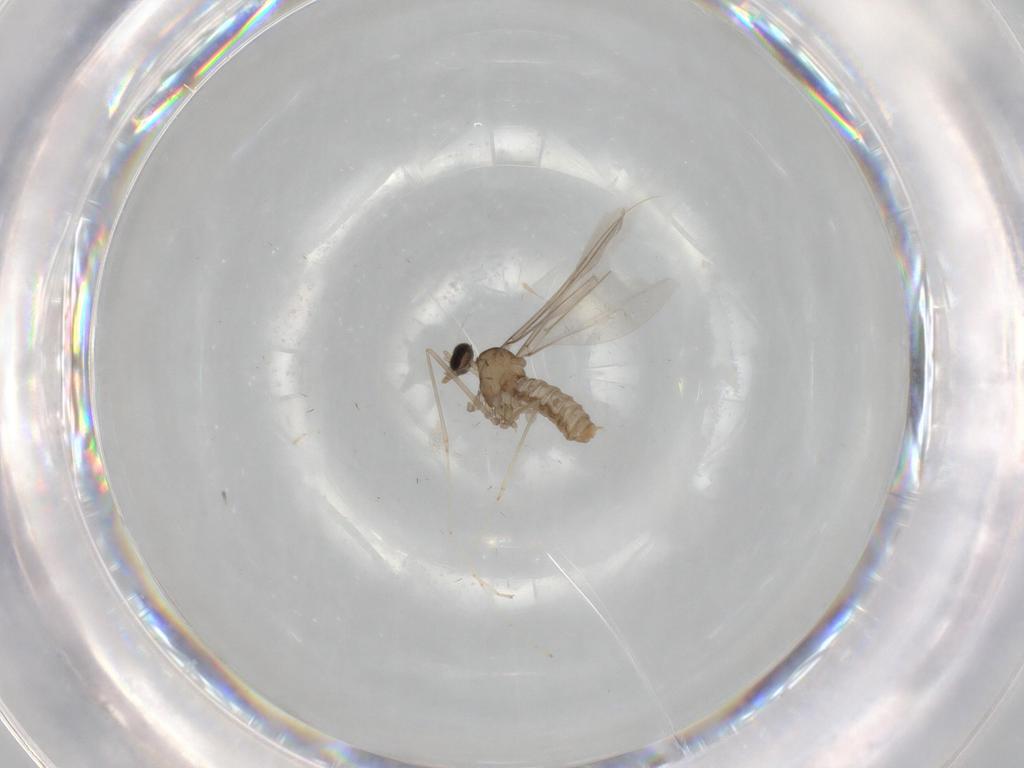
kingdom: Animalia
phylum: Arthropoda
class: Insecta
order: Diptera
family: Cecidomyiidae
